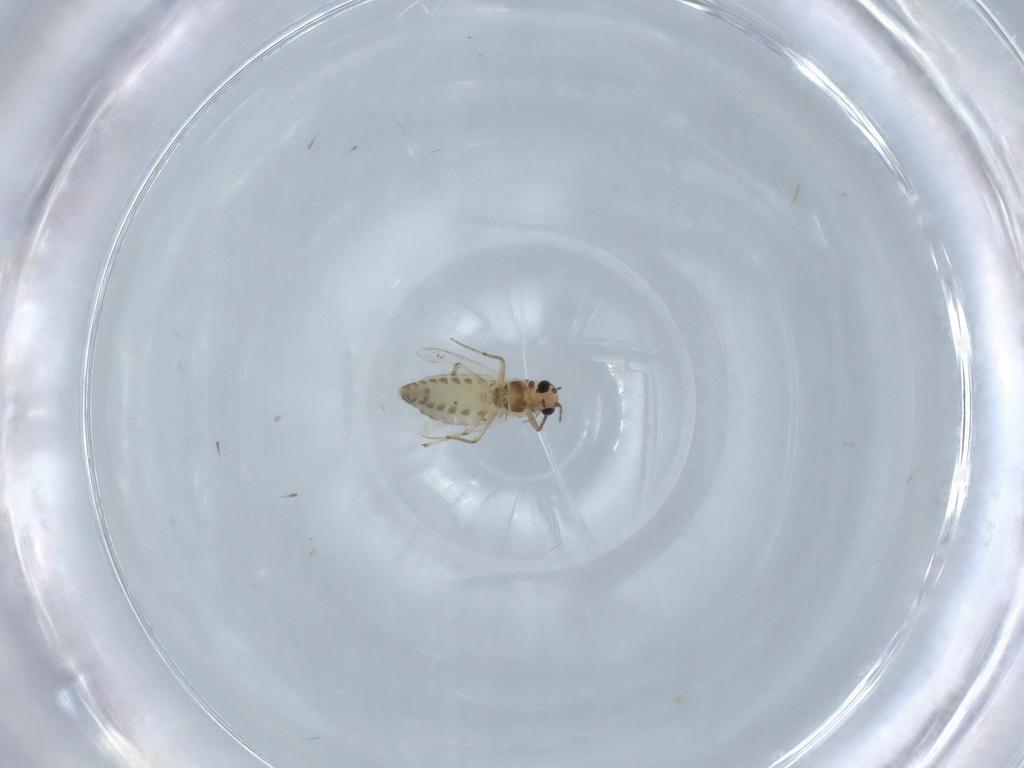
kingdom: Animalia
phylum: Arthropoda
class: Insecta
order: Diptera
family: Chironomidae
